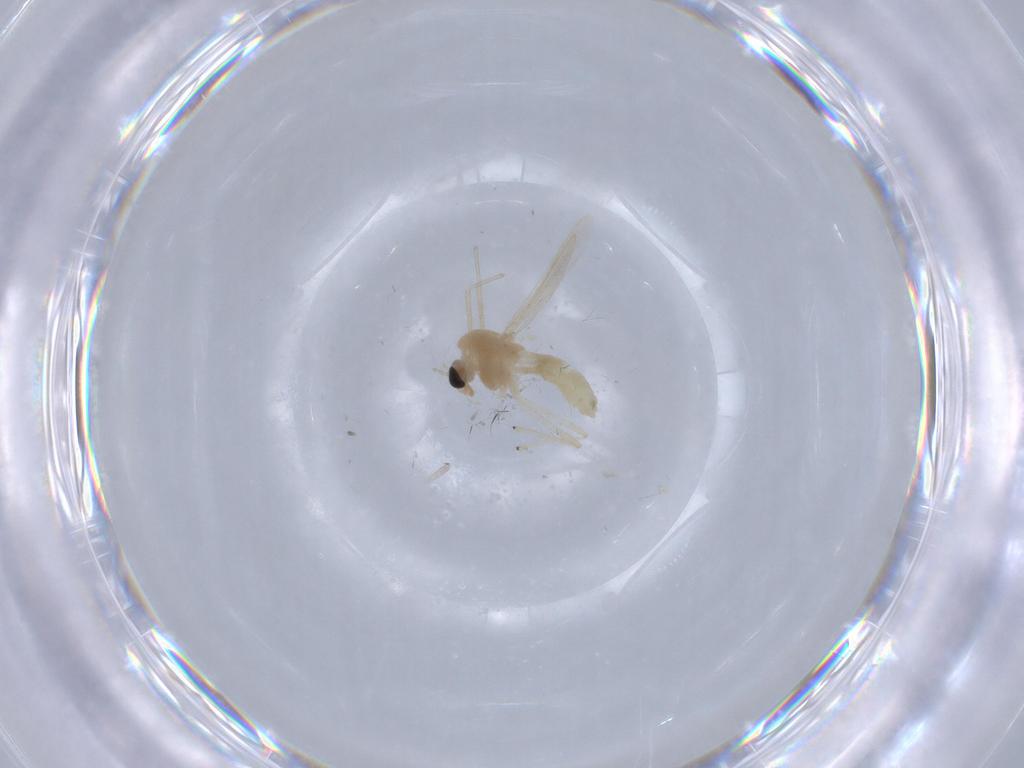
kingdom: Animalia
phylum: Arthropoda
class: Insecta
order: Diptera
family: Chironomidae
